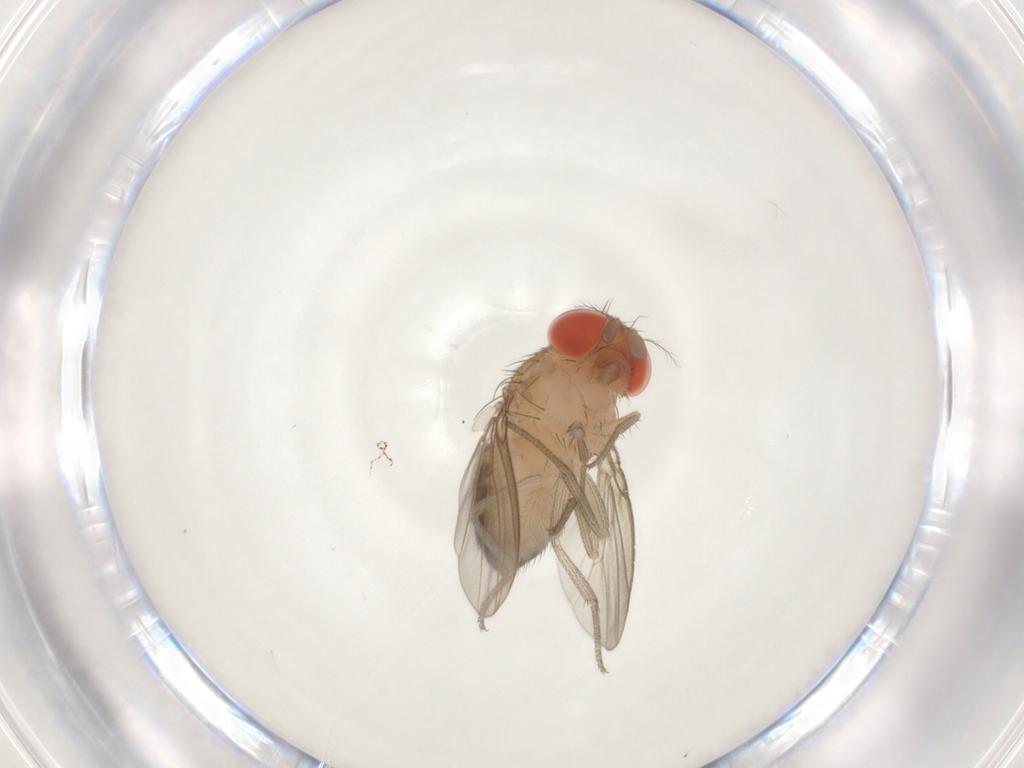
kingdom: Animalia
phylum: Arthropoda
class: Insecta
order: Diptera
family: Drosophilidae
